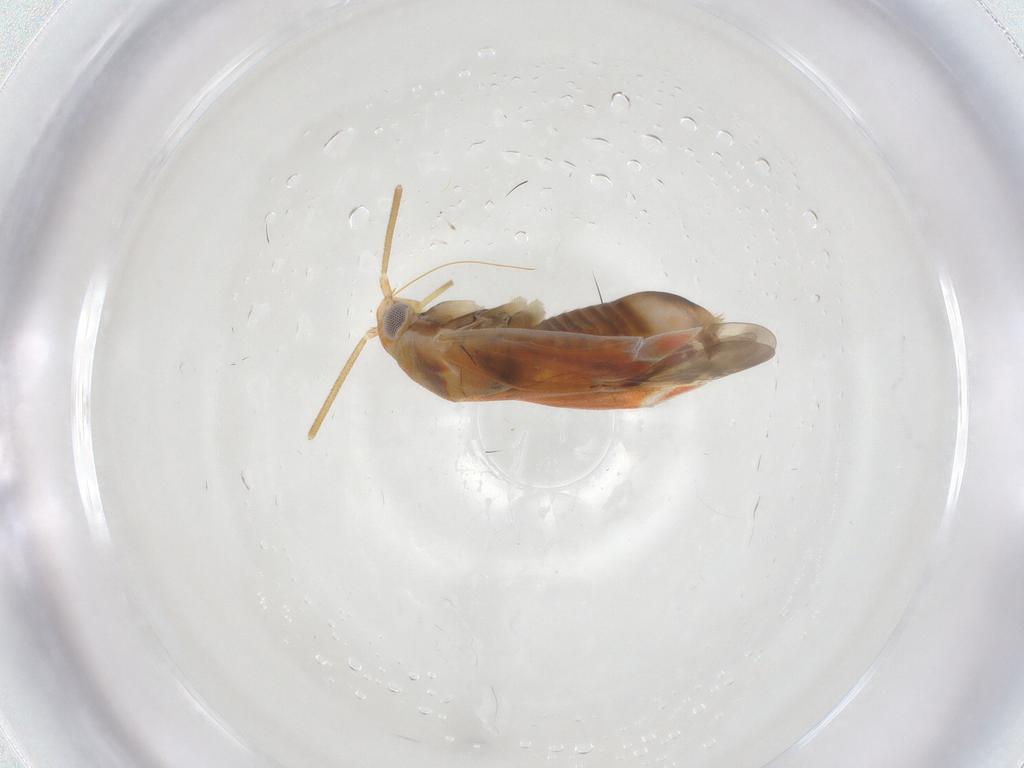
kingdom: Animalia
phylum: Arthropoda
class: Insecta
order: Hemiptera
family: Miridae
